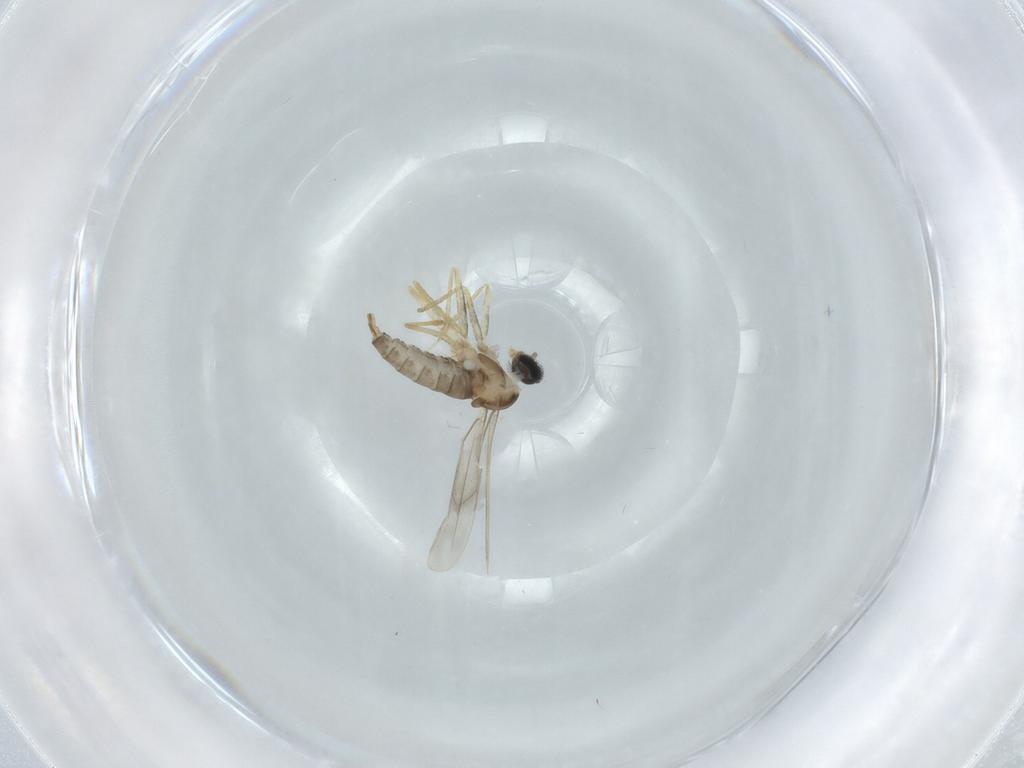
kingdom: Animalia
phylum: Arthropoda
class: Insecta
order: Diptera
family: Cecidomyiidae
